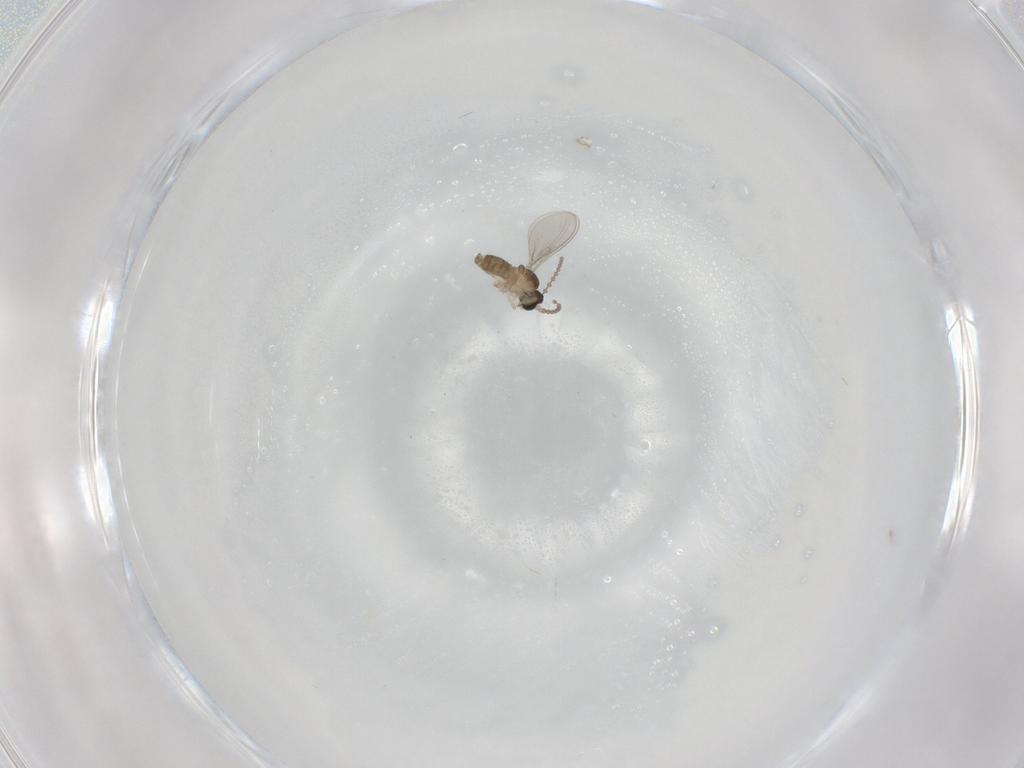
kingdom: Animalia
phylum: Arthropoda
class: Insecta
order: Diptera
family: Cecidomyiidae
